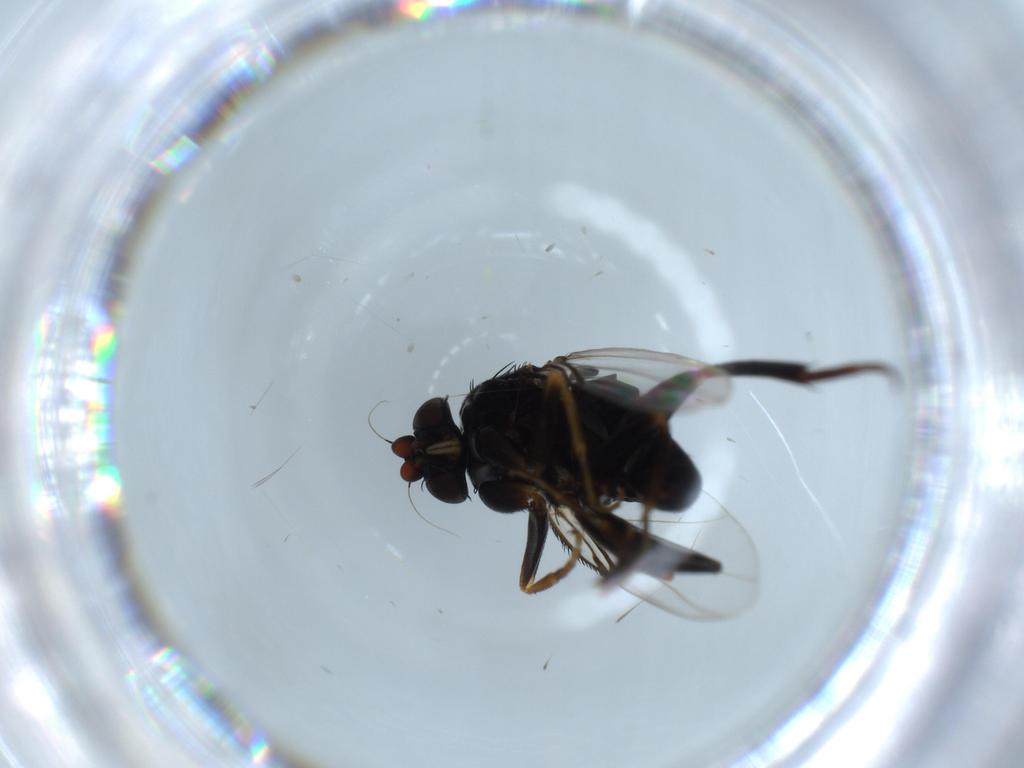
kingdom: Animalia
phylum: Arthropoda
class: Insecta
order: Diptera
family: Phoridae
